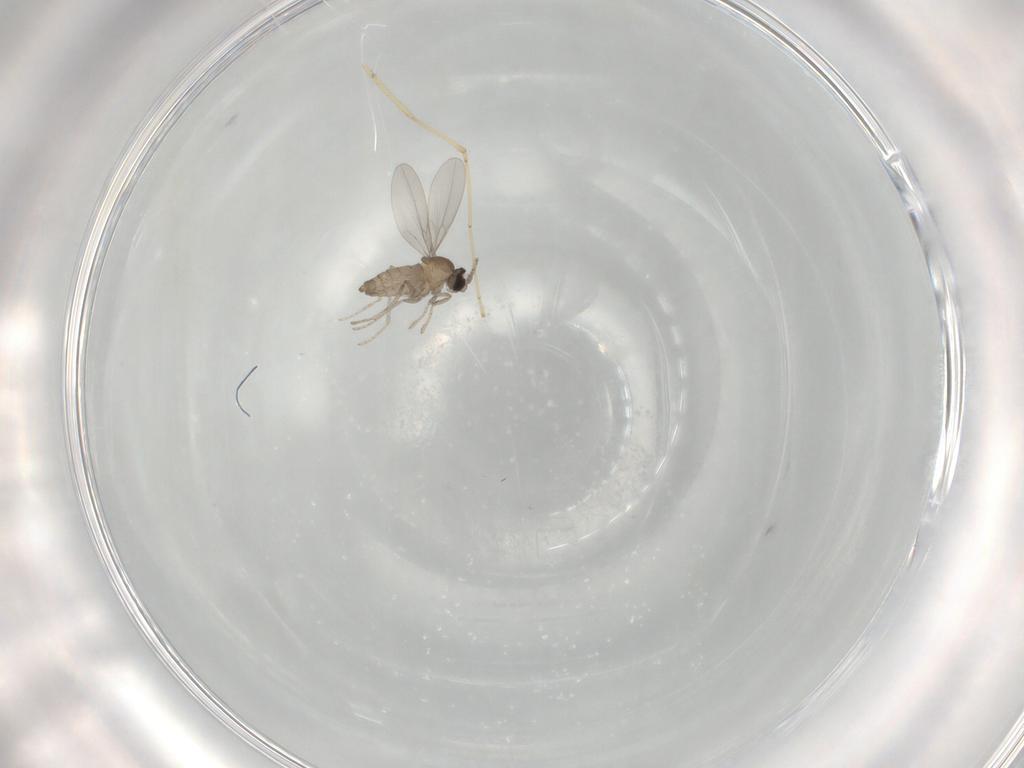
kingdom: Animalia
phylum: Arthropoda
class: Insecta
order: Diptera
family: Cecidomyiidae
